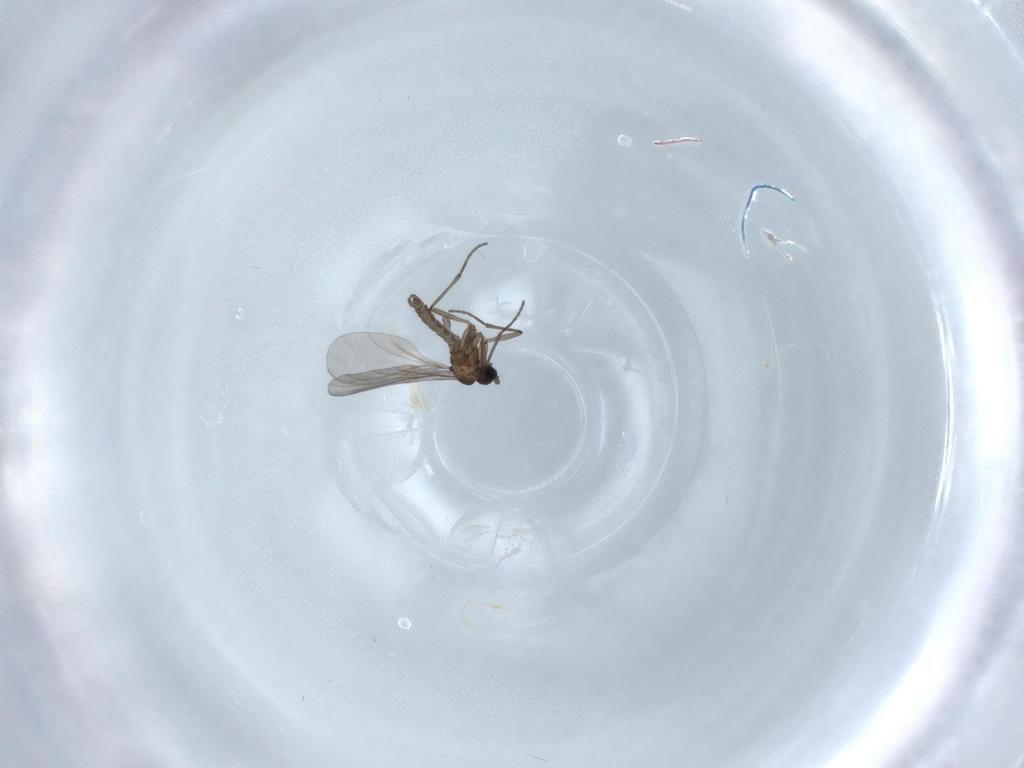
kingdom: Animalia
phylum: Arthropoda
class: Insecta
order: Diptera
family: Sciaridae
